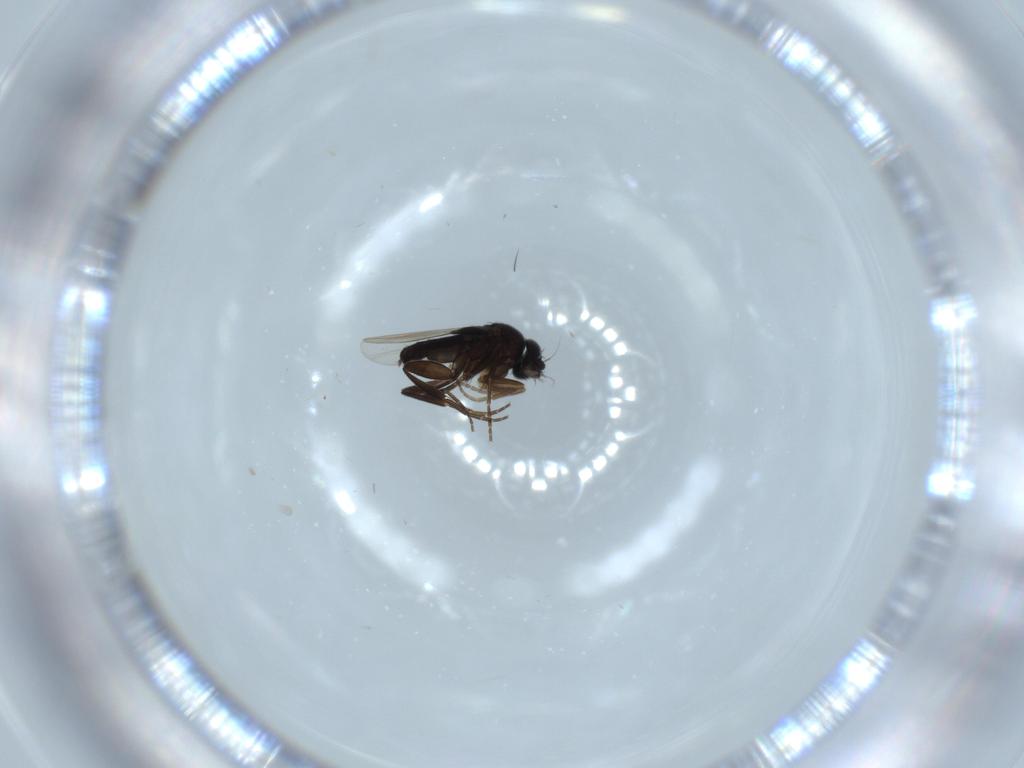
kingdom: Animalia
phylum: Arthropoda
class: Insecta
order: Diptera
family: Phoridae
